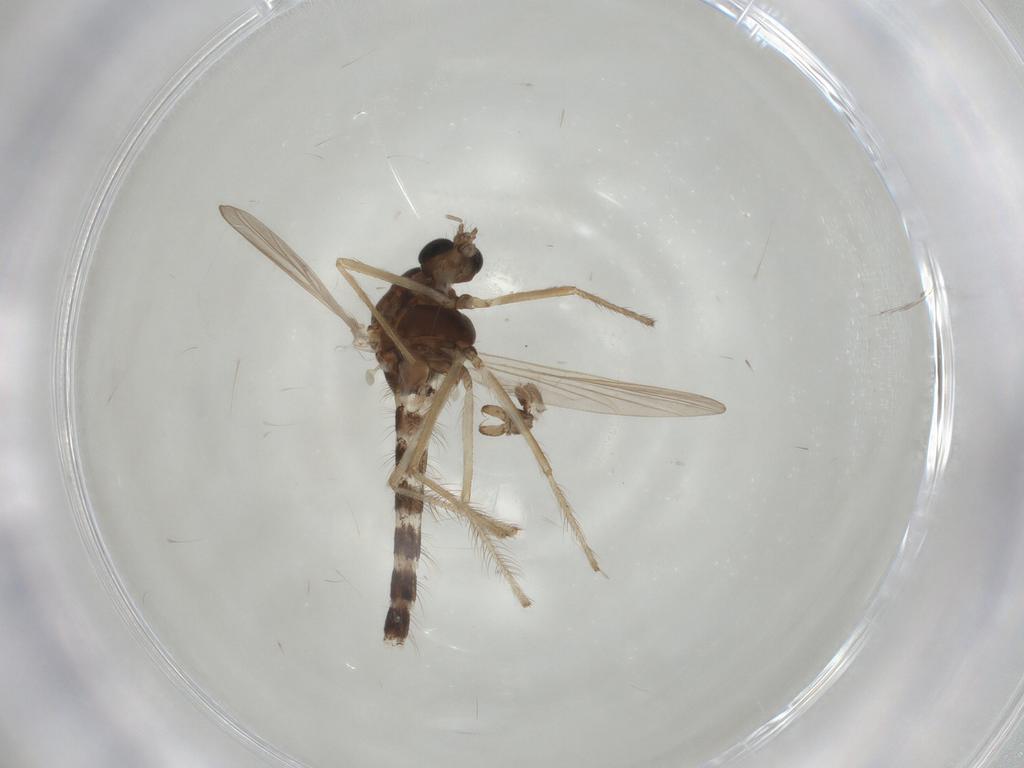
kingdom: Animalia
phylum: Arthropoda
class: Insecta
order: Diptera
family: Chironomidae
